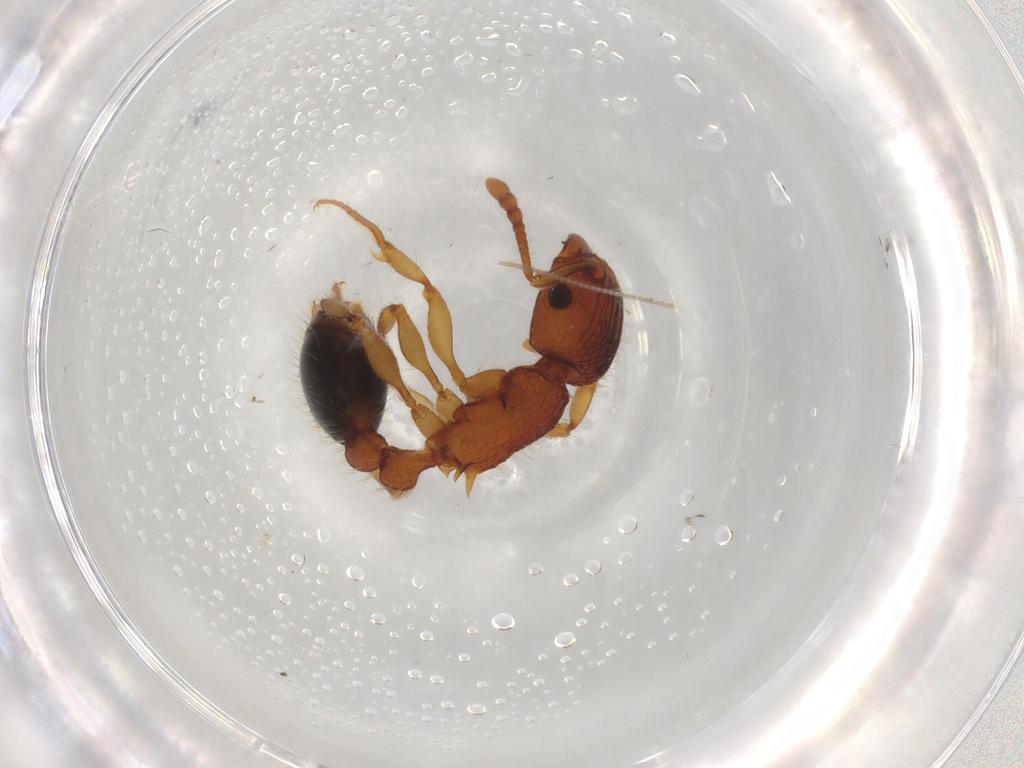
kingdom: Animalia
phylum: Arthropoda
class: Insecta
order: Hymenoptera
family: Formicidae
